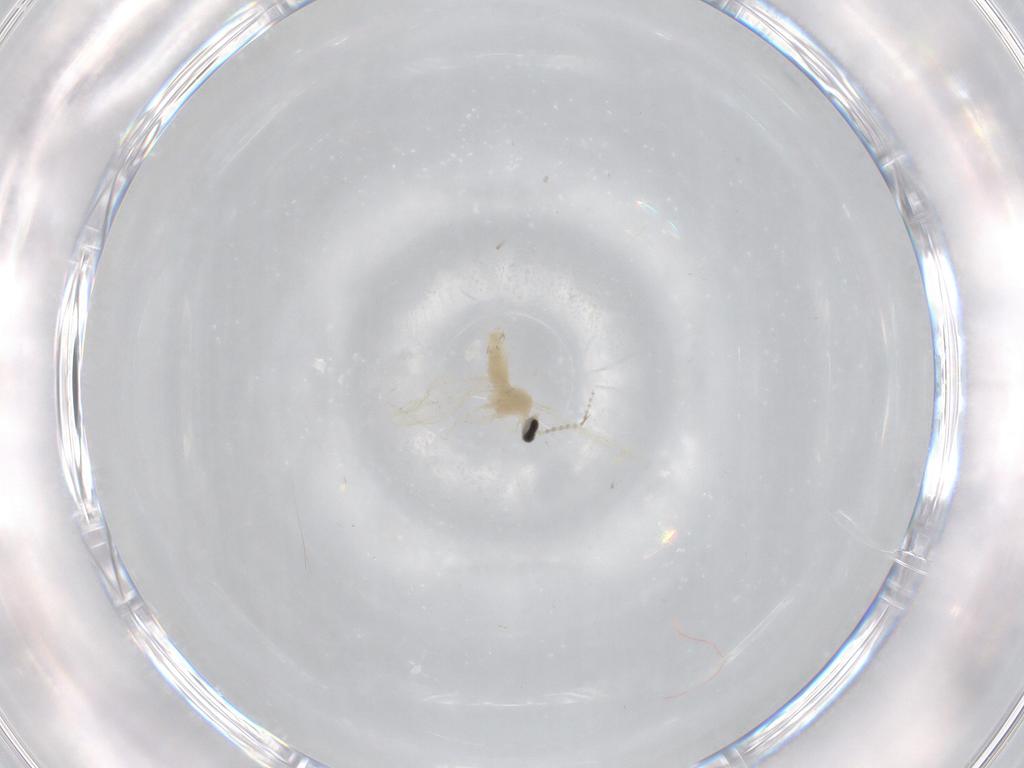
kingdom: Animalia
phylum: Arthropoda
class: Insecta
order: Diptera
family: Cecidomyiidae
